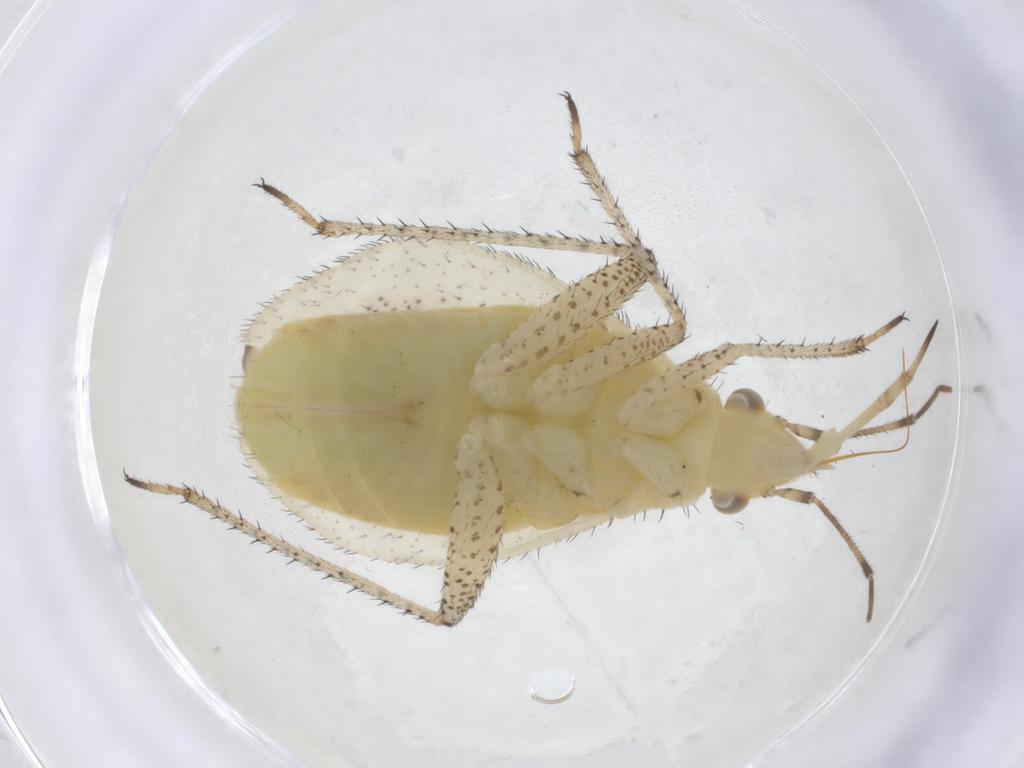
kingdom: Animalia
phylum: Arthropoda
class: Insecta
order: Hemiptera
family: Miridae
